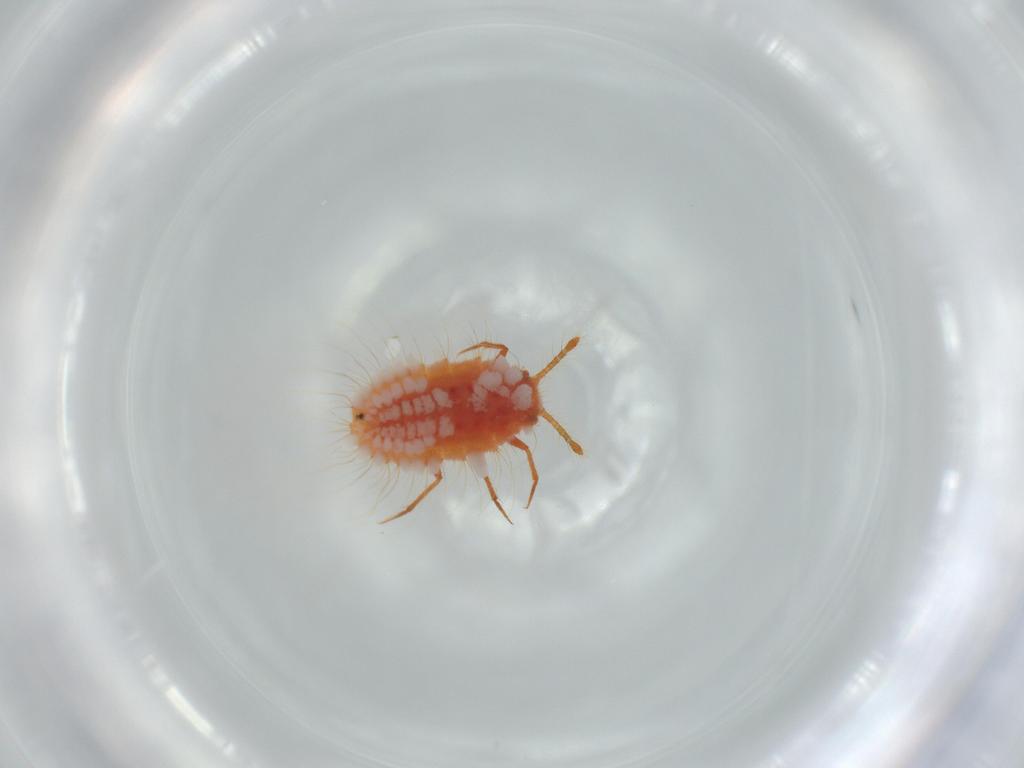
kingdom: Animalia
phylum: Arthropoda
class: Insecta
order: Hemiptera
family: Coccoidea_incertae_sedis
